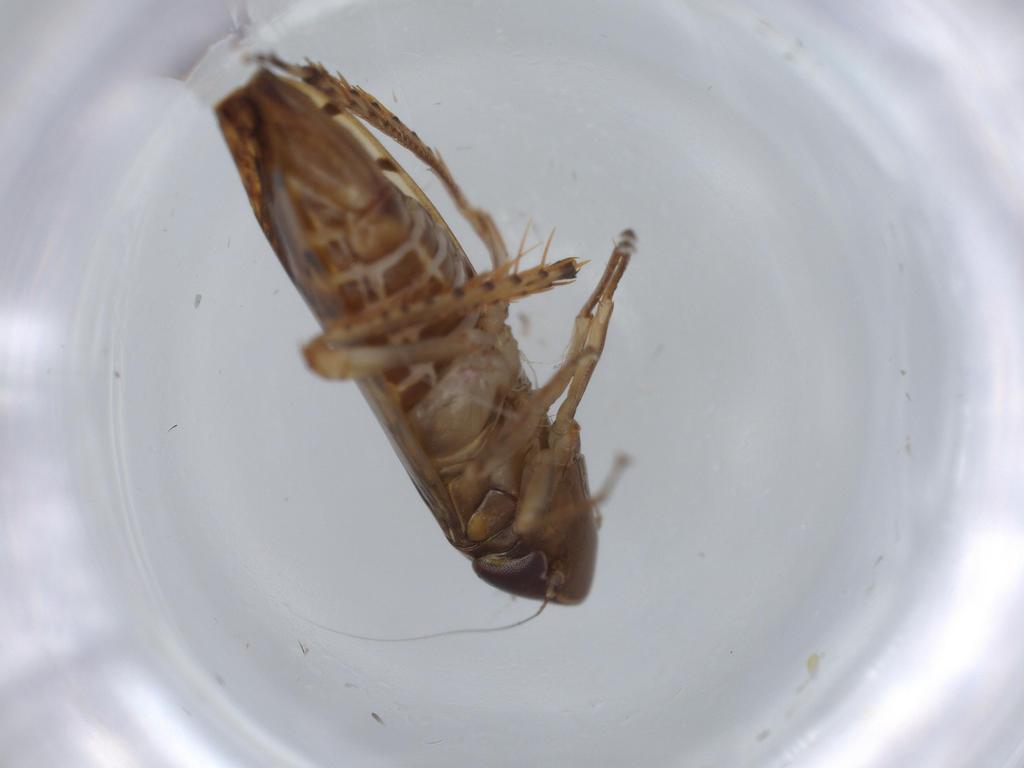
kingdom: Animalia
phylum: Arthropoda
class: Insecta
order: Hemiptera
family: Cicadellidae
